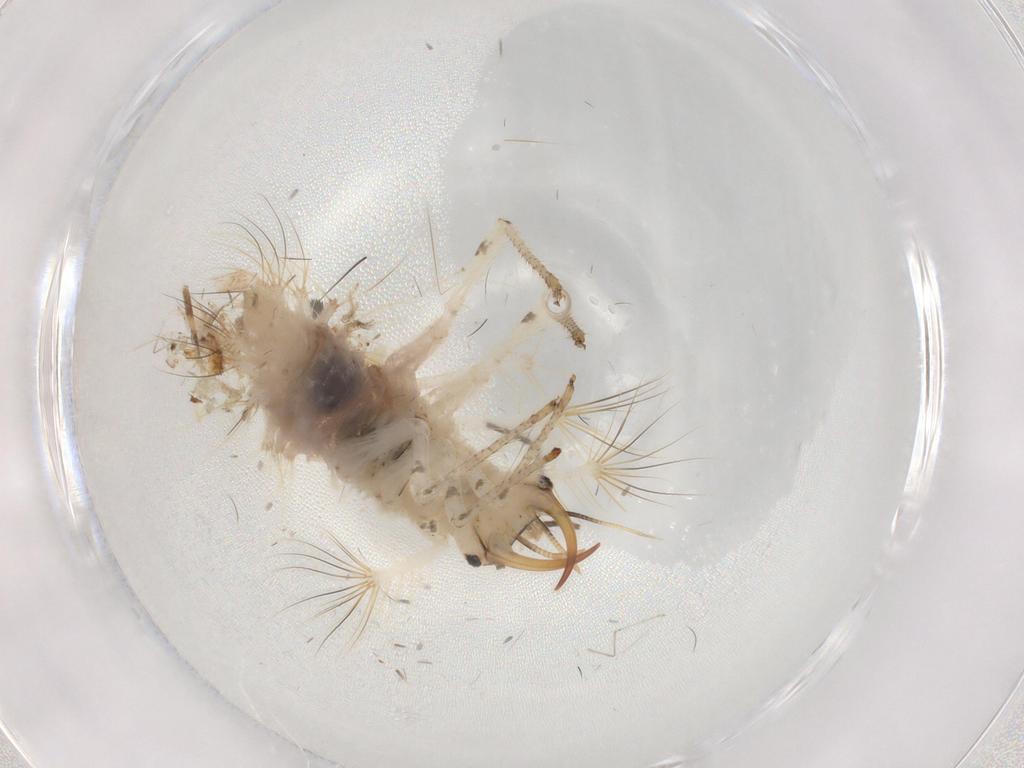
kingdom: Animalia
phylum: Arthropoda
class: Insecta
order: Neuroptera
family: Chrysopidae
